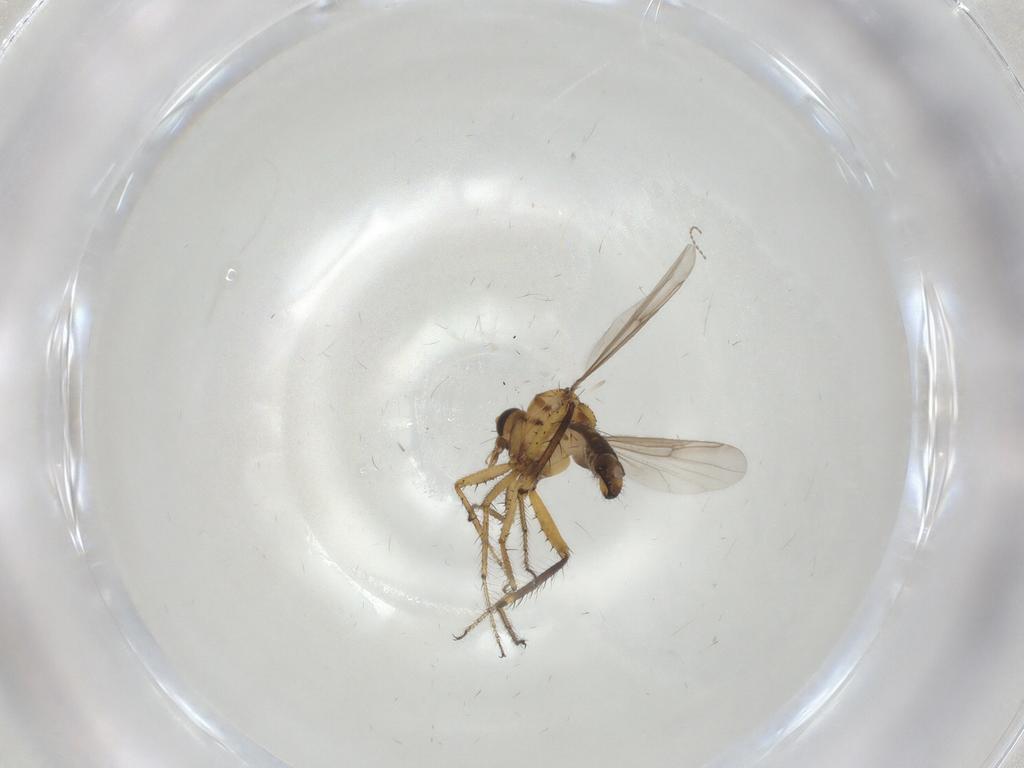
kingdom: Animalia
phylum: Arthropoda
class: Insecta
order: Diptera
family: Ceratopogonidae
